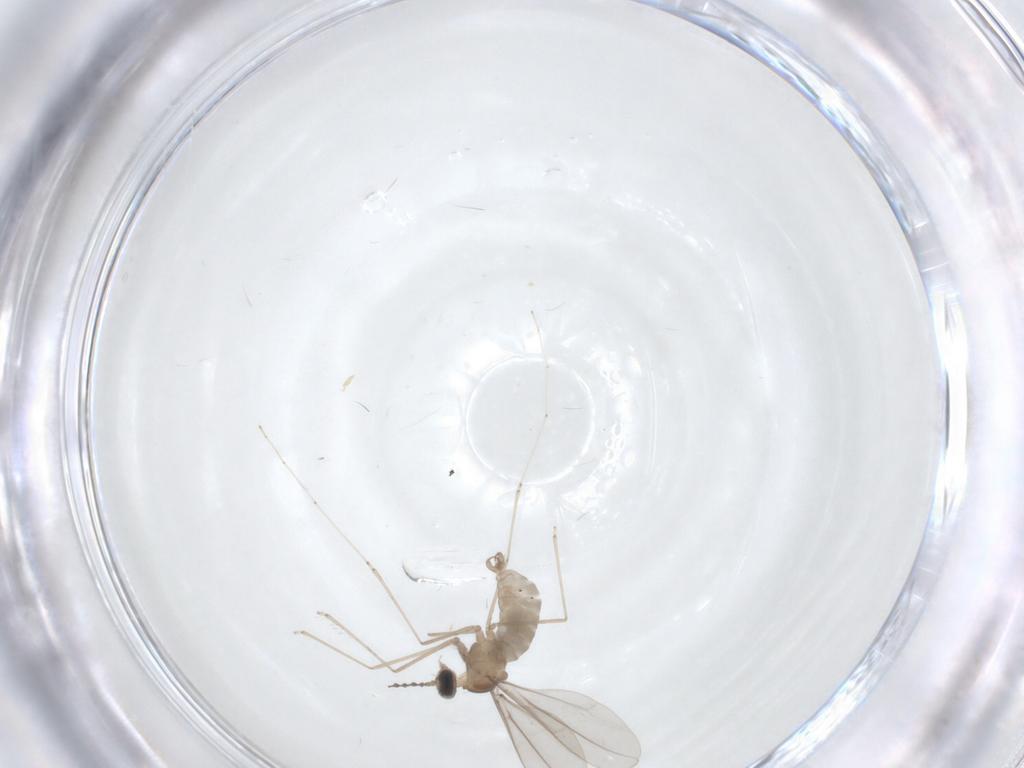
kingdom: Animalia
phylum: Arthropoda
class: Insecta
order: Diptera
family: Cecidomyiidae
